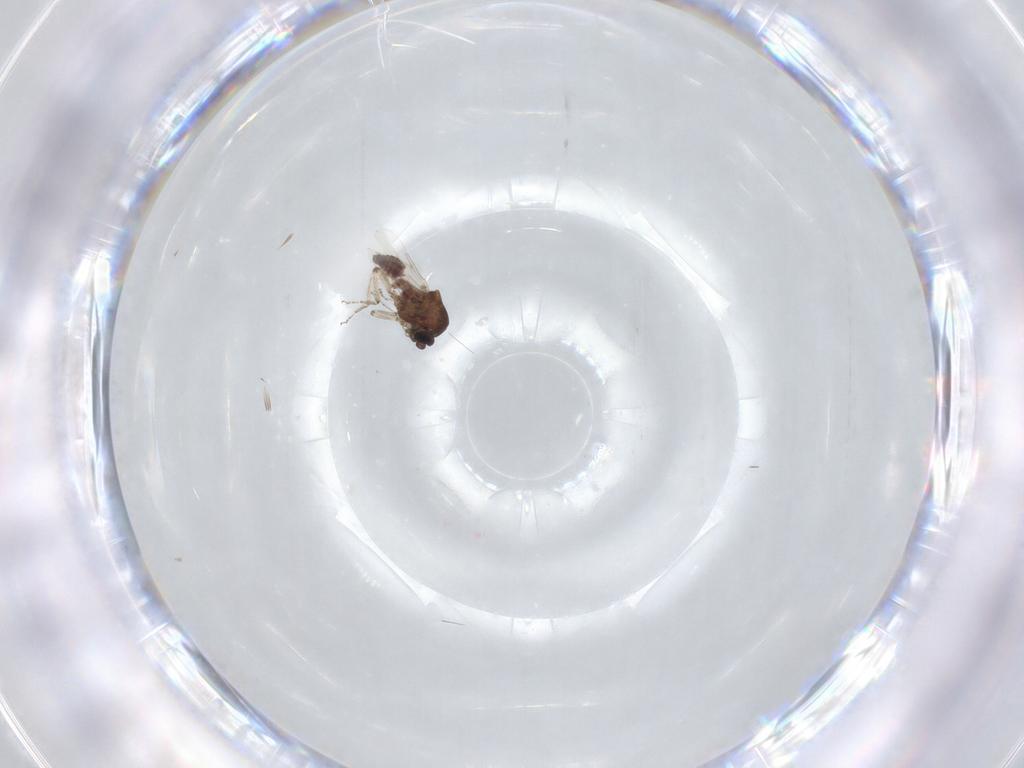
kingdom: Animalia
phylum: Arthropoda
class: Insecta
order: Diptera
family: Ceratopogonidae
